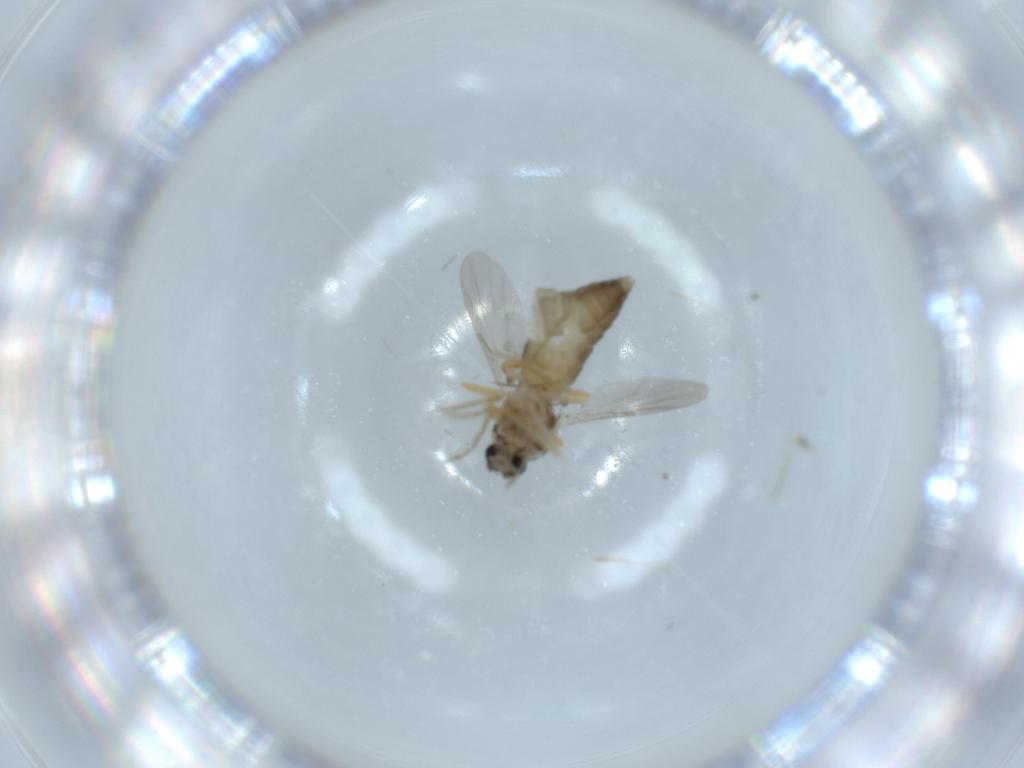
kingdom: Animalia
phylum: Arthropoda
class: Insecta
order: Diptera
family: Ceratopogonidae
